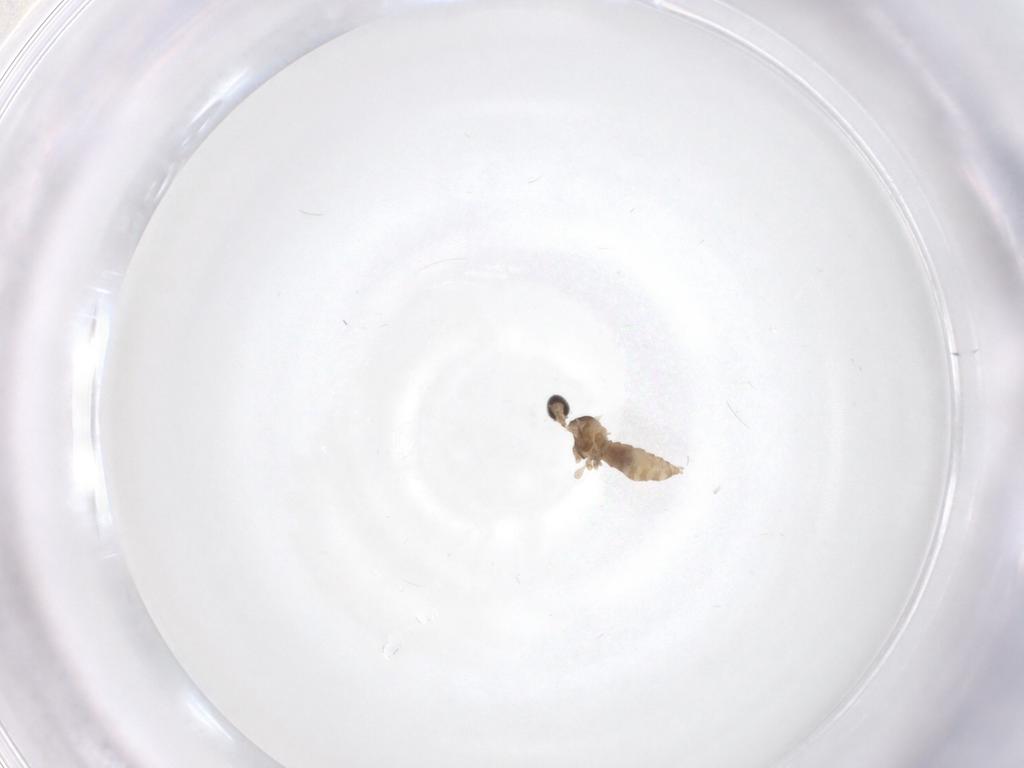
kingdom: Animalia
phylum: Arthropoda
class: Insecta
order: Diptera
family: Cecidomyiidae
